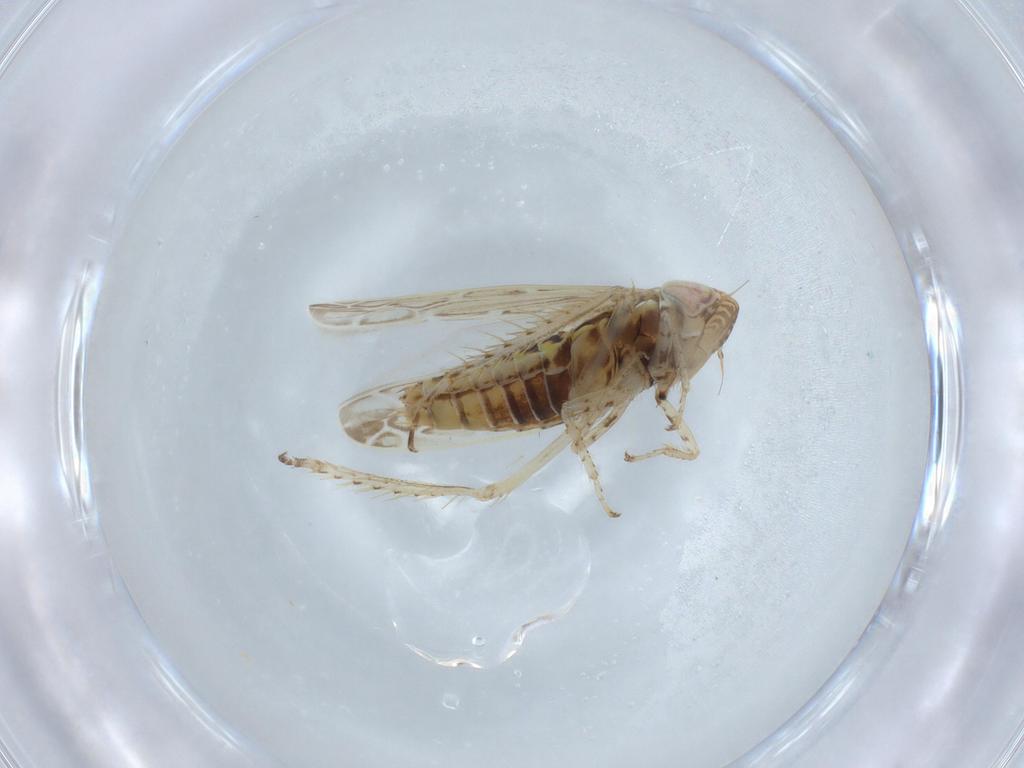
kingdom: Animalia
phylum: Arthropoda
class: Insecta
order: Hemiptera
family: Cicadellidae
